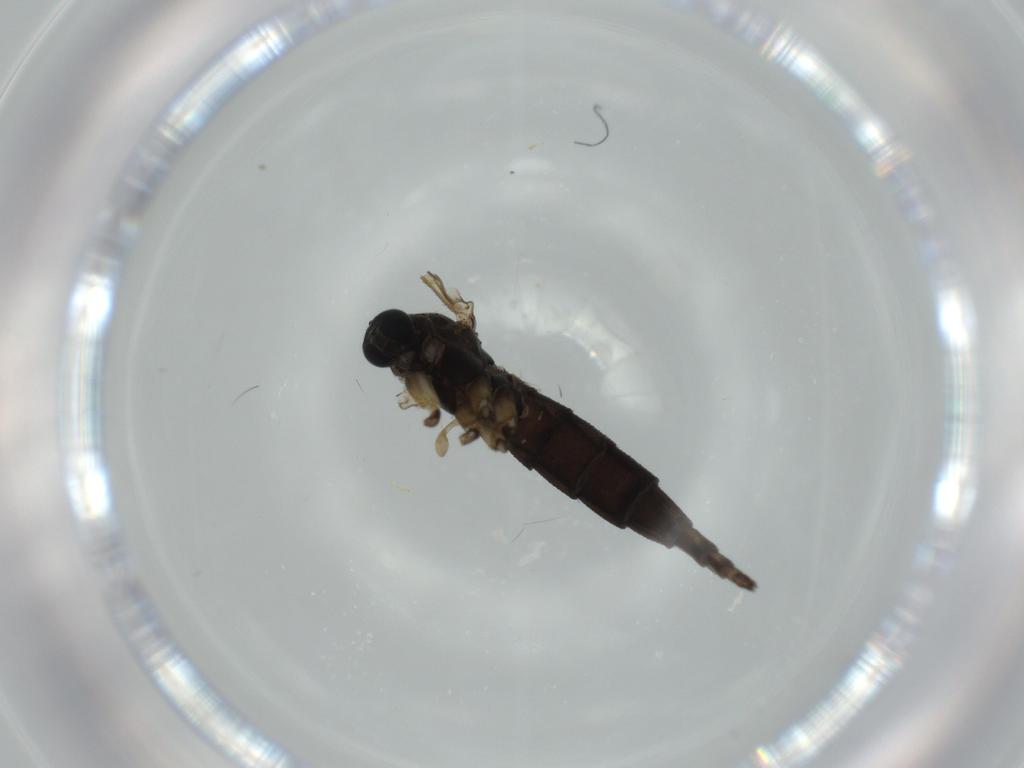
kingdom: Animalia
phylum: Arthropoda
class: Insecta
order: Diptera
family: Sciaridae
